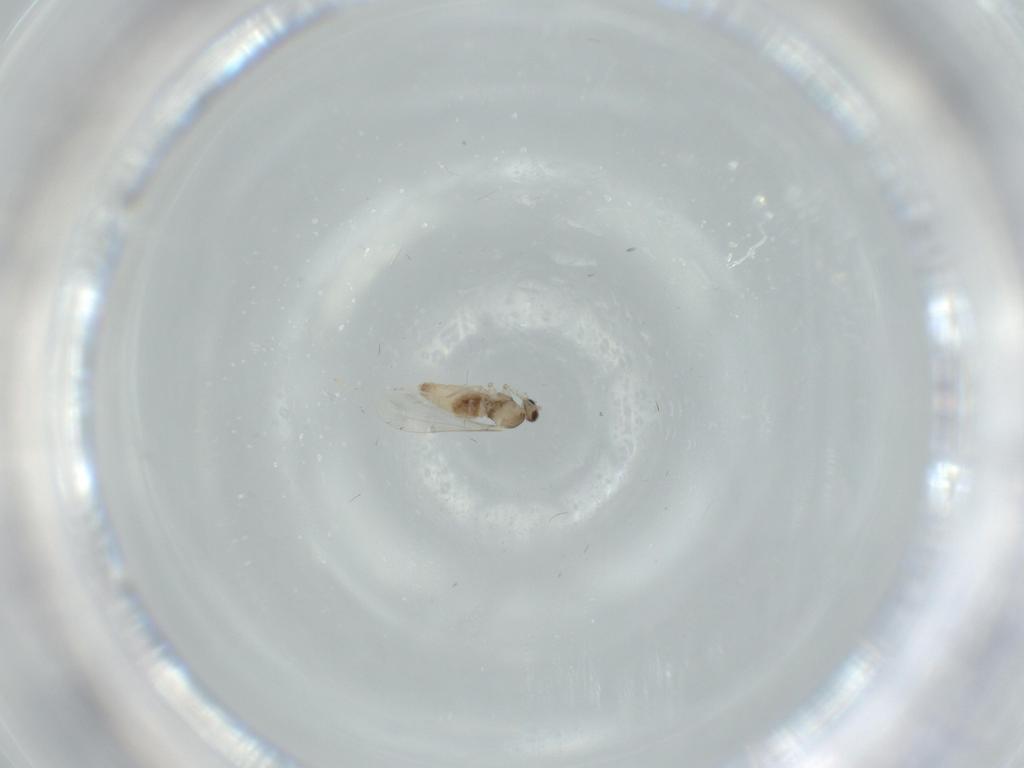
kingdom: Animalia
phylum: Arthropoda
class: Insecta
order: Diptera
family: Cecidomyiidae
